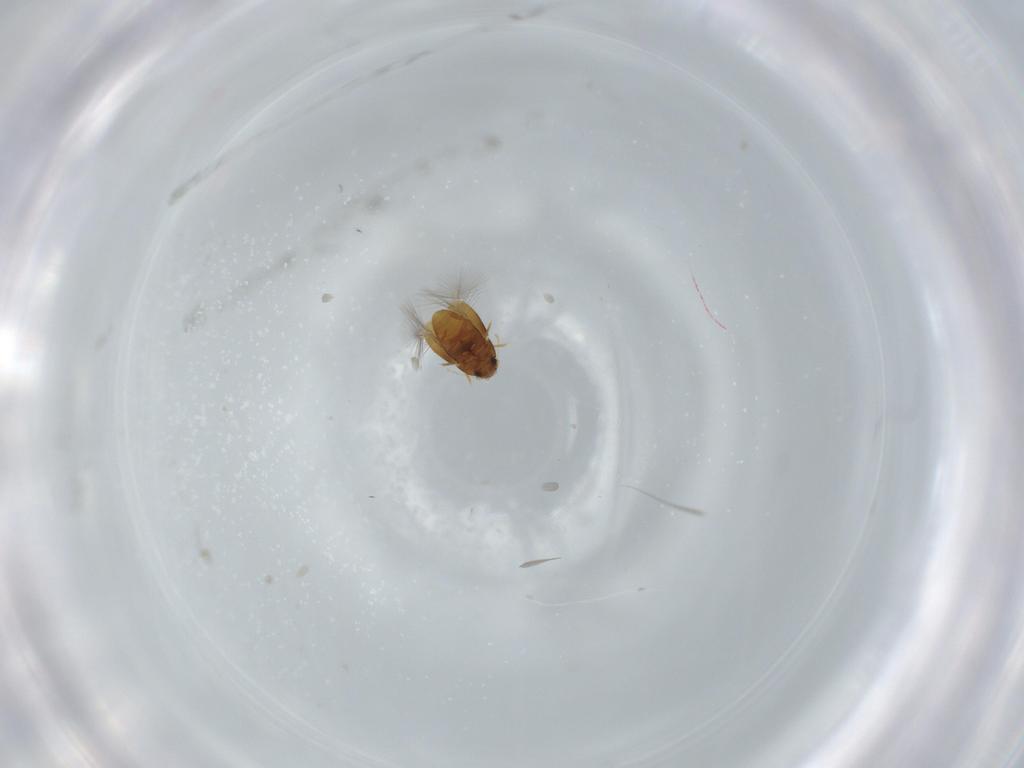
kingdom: Animalia
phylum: Arthropoda
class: Insecta
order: Coleoptera
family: Ptiliidae
